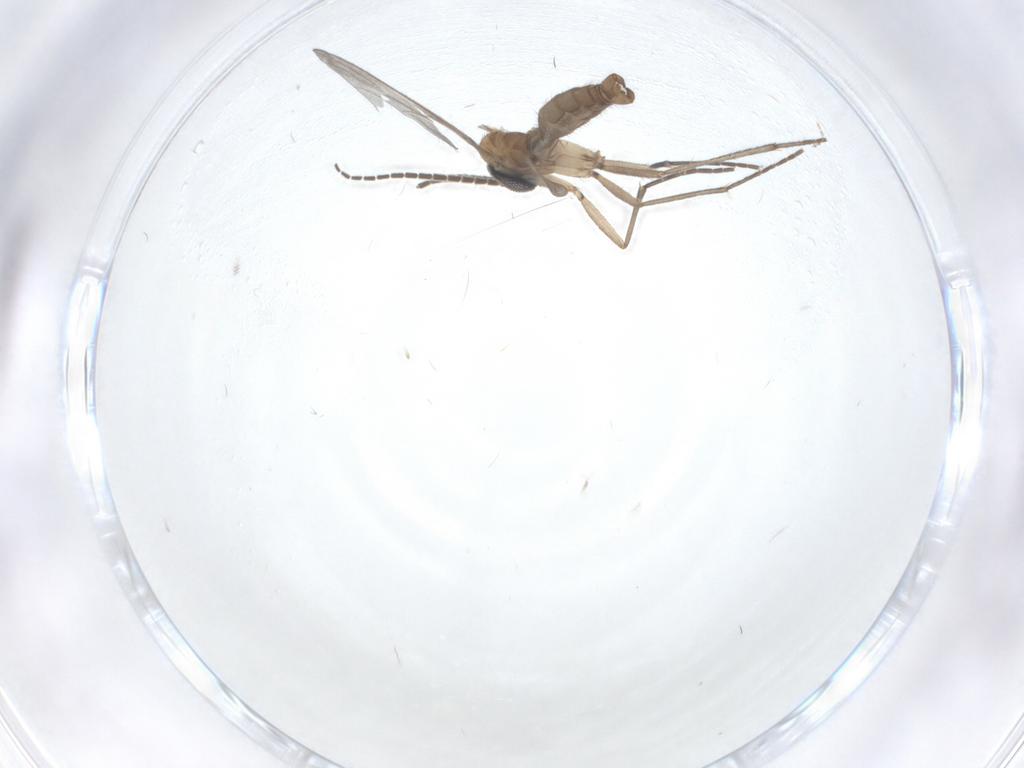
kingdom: Animalia
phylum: Arthropoda
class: Insecta
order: Diptera
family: Sciaridae
